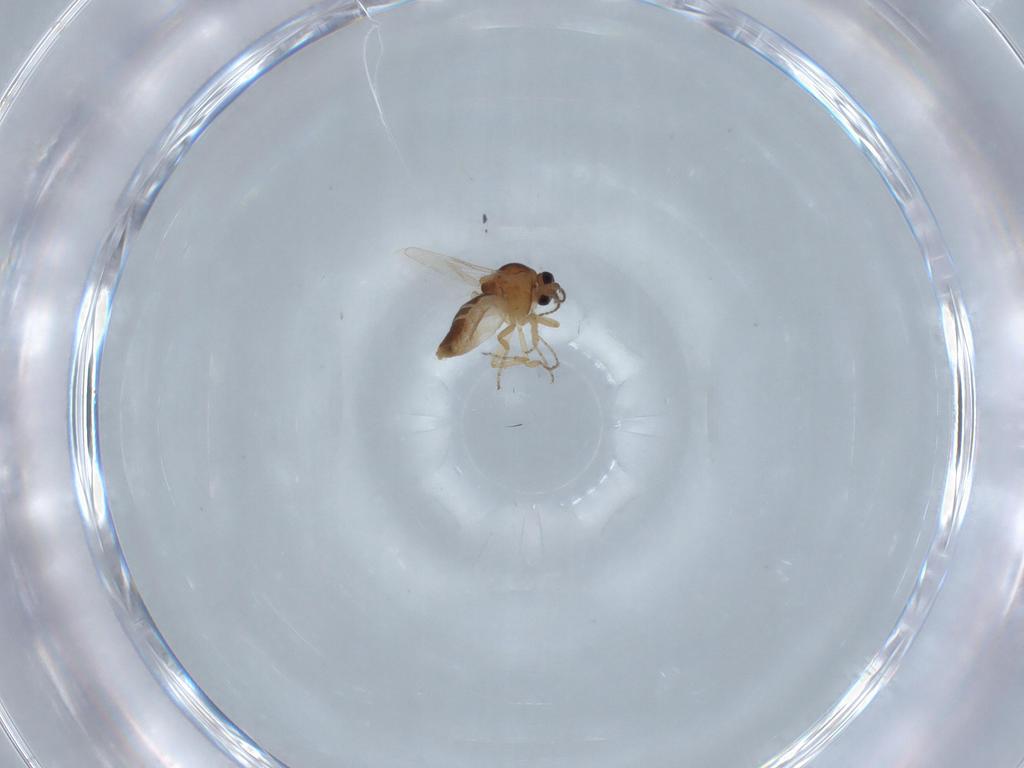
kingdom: Animalia
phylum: Arthropoda
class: Insecta
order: Diptera
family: Ceratopogonidae
